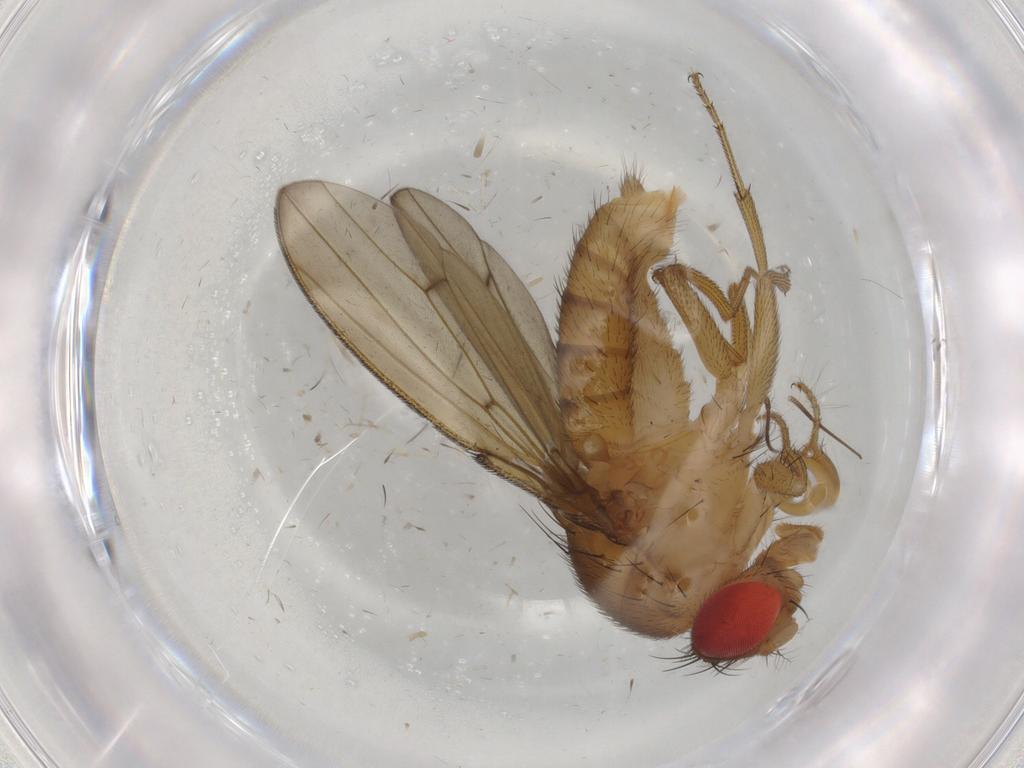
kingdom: Animalia
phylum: Arthropoda
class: Insecta
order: Diptera
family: Drosophilidae
